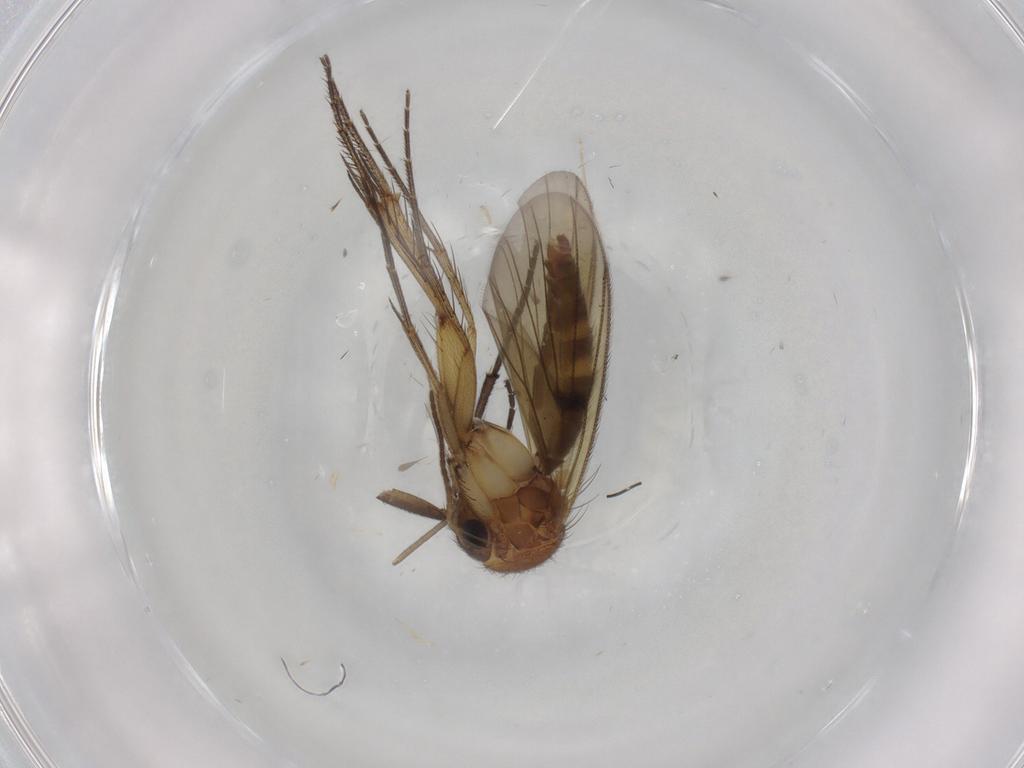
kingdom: Animalia
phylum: Arthropoda
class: Insecta
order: Diptera
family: Sciaridae
